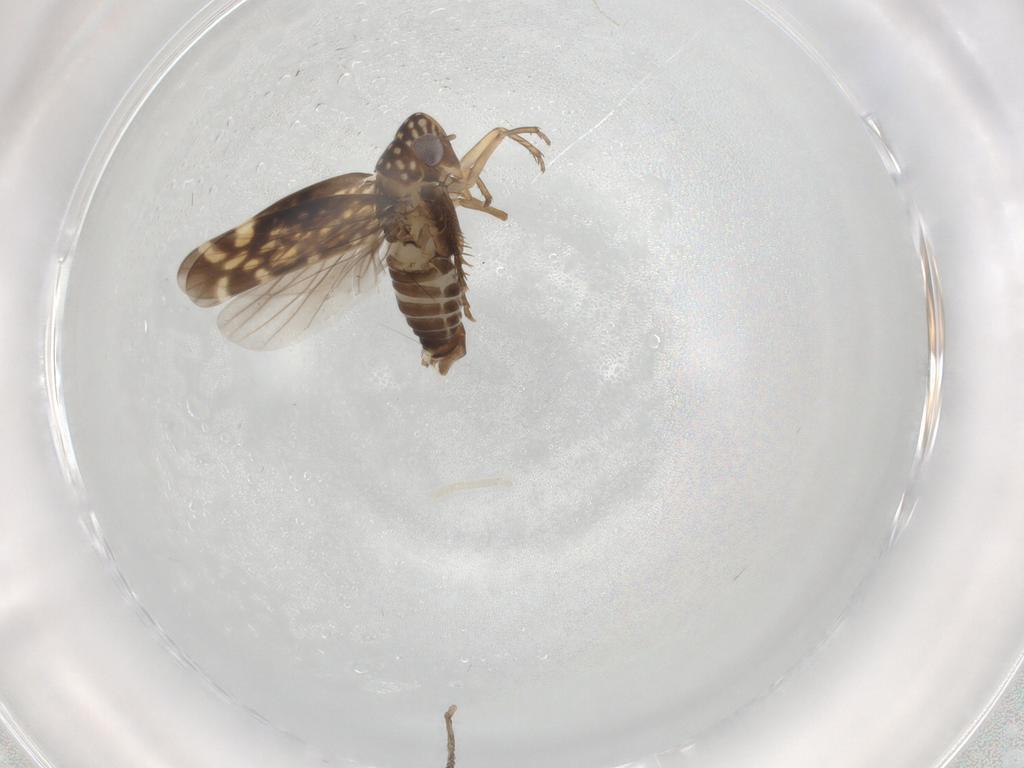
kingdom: Animalia
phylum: Arthropoda
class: Insecta
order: Hemiptera
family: Cicadellidae
